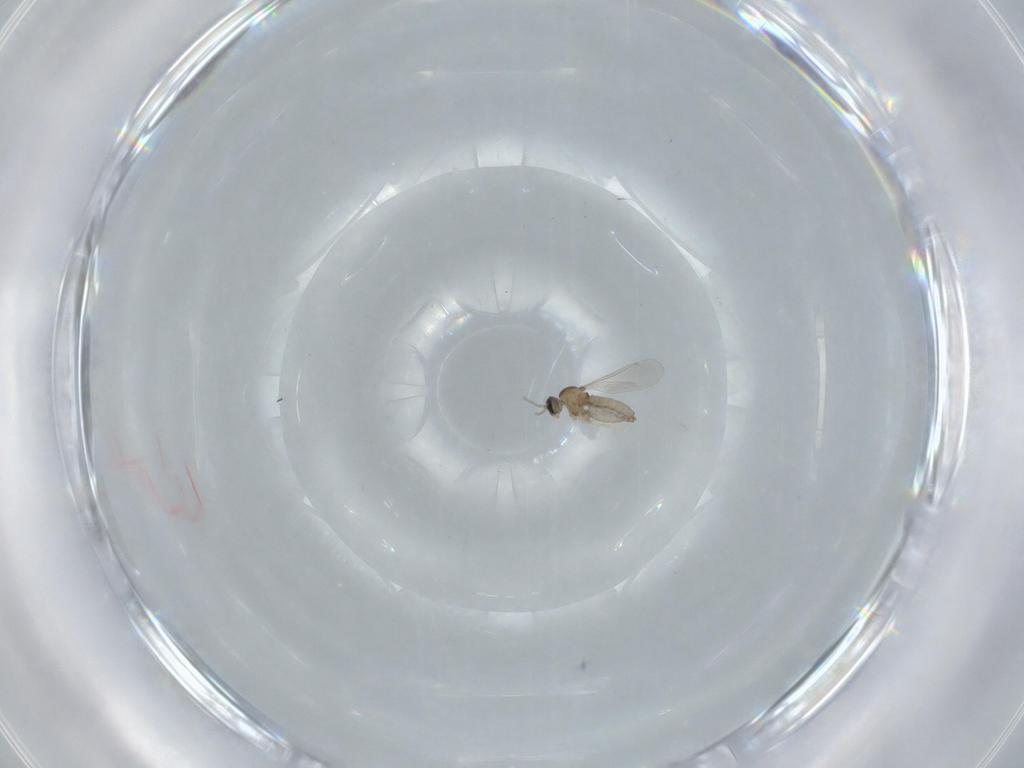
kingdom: Animalia
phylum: Arthropoda
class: Insecta
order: Diptera
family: Cecidomyiidae
